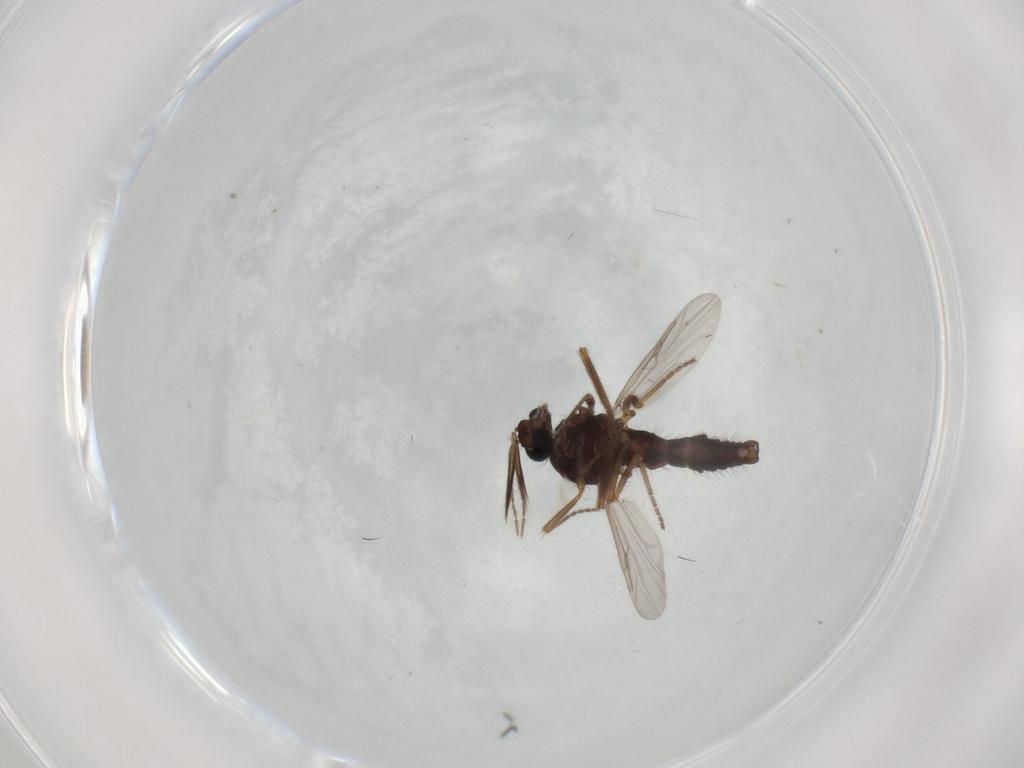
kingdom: Animalia
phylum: Arthropoda
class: Insecta
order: Diptera
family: Ceratopogonidae
